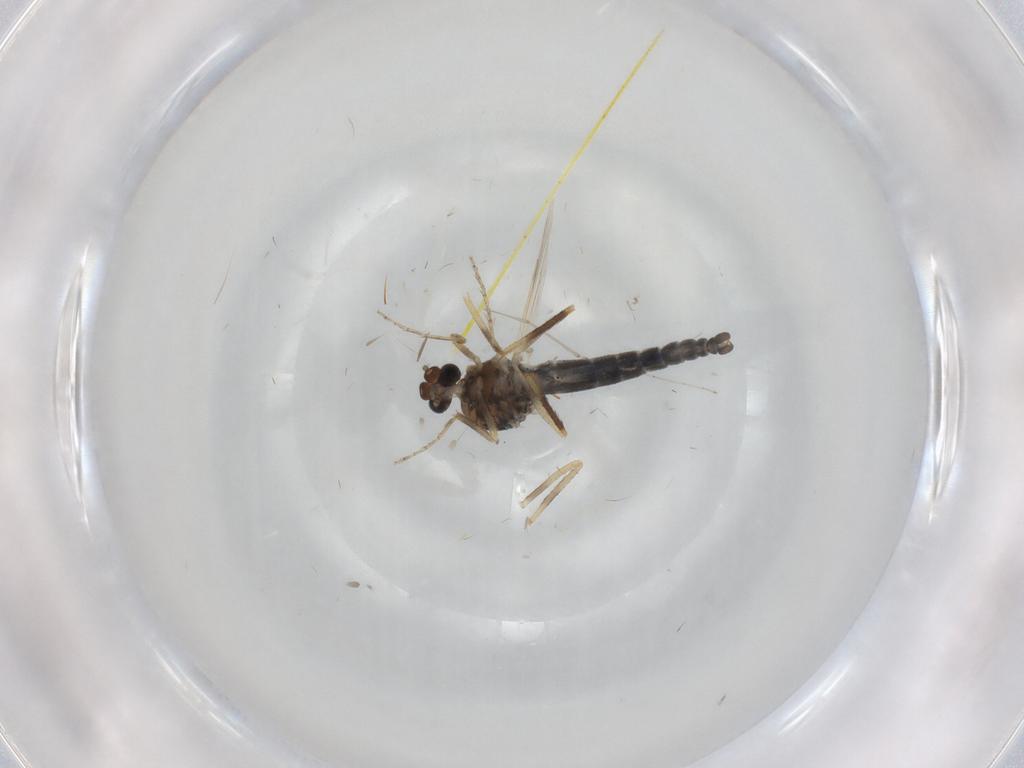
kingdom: Animalia
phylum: Arthropoda
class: Insecta
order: Diptera
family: Ceratopogonidae
